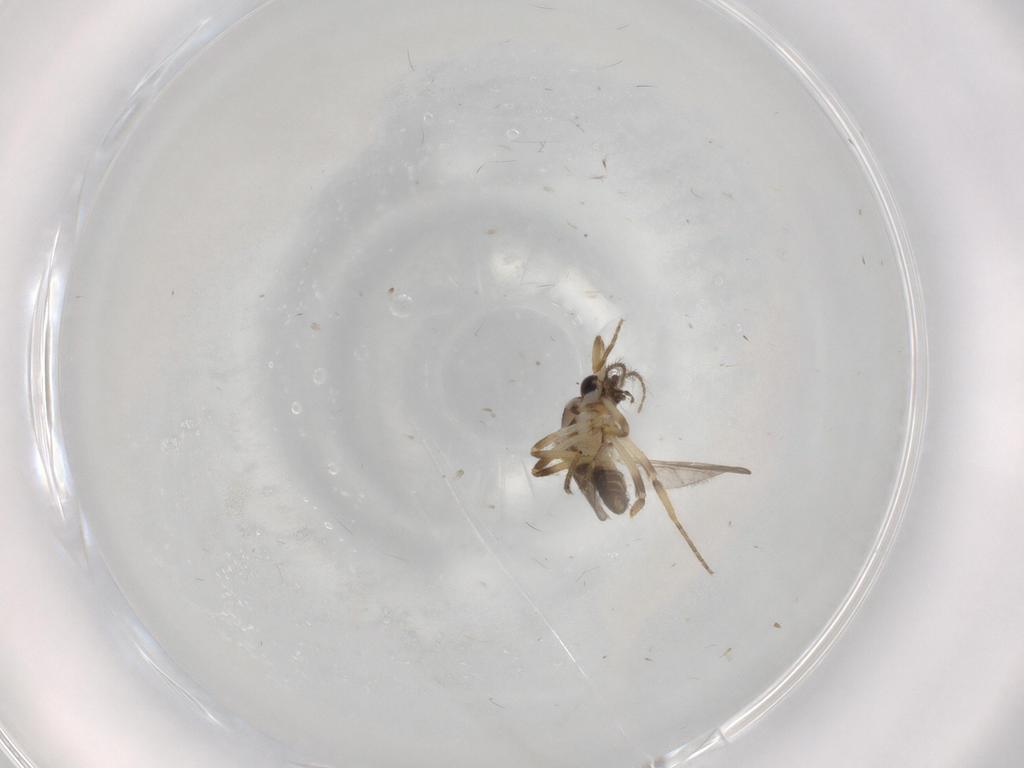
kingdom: Animalia
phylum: Arthropoda
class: Insecta
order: Diptera
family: Ceratopogonidae
